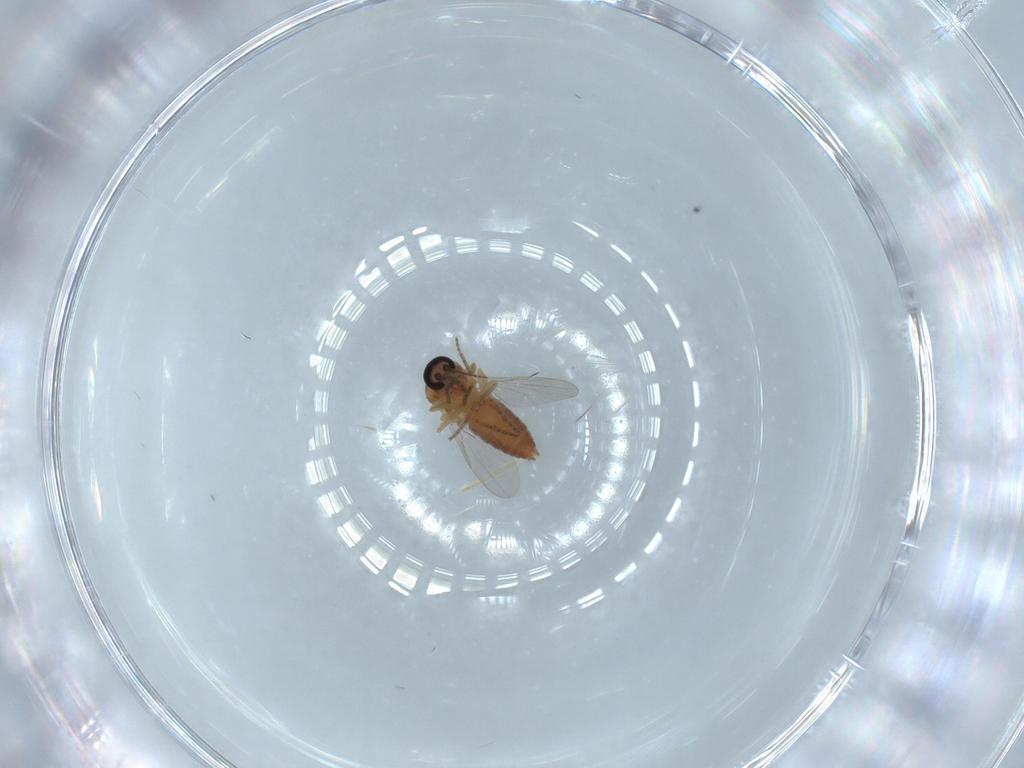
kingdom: Animalia
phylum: Arthropoda
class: Insecta
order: Diptera
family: Ceratopogonidae
